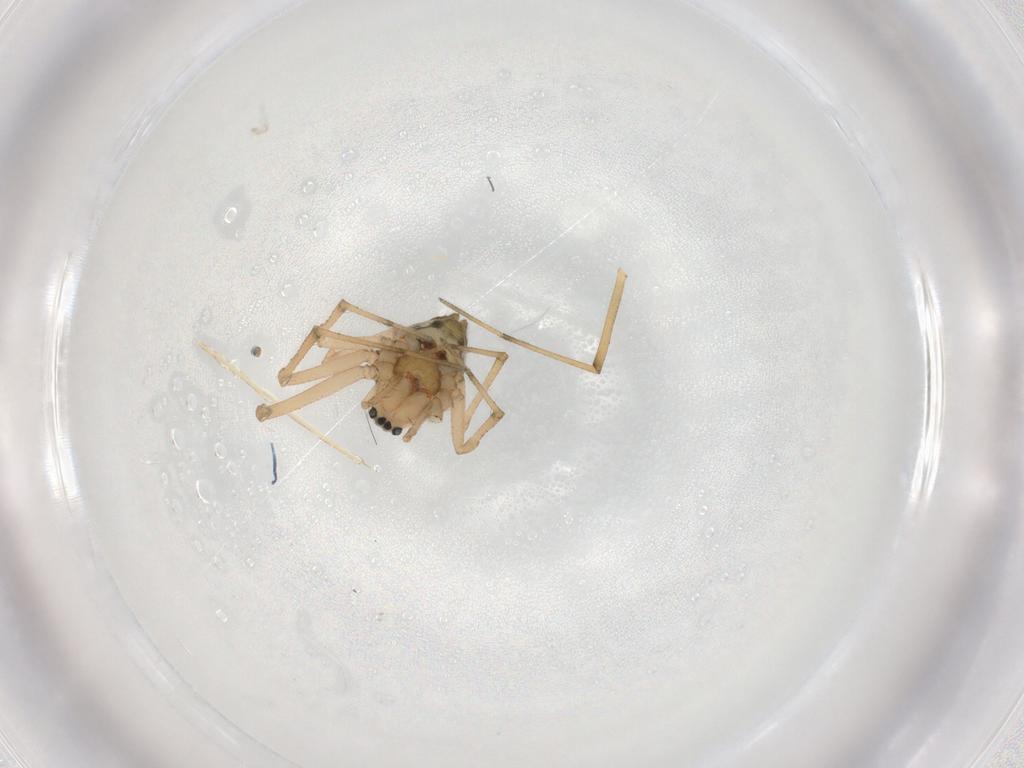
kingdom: Animalia
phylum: Arthropoda
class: Arachnida
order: Araneae
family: Linyphiidae
